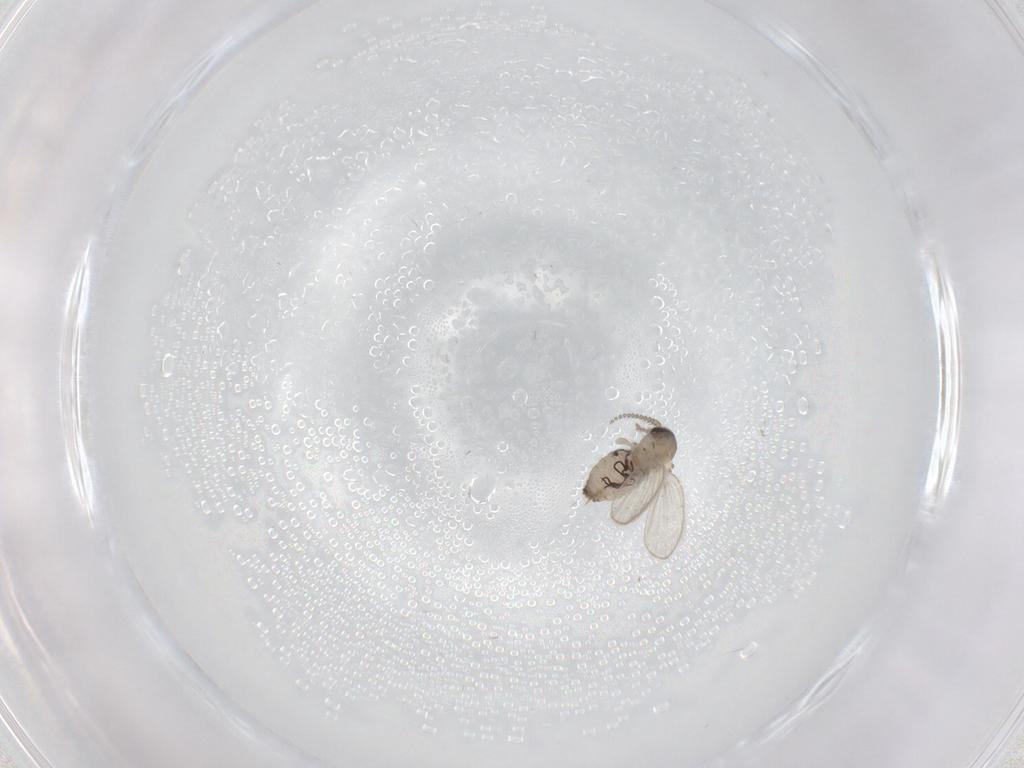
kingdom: Animalia
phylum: Arthropoda
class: Insecta
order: Diptera
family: Psychodidae
